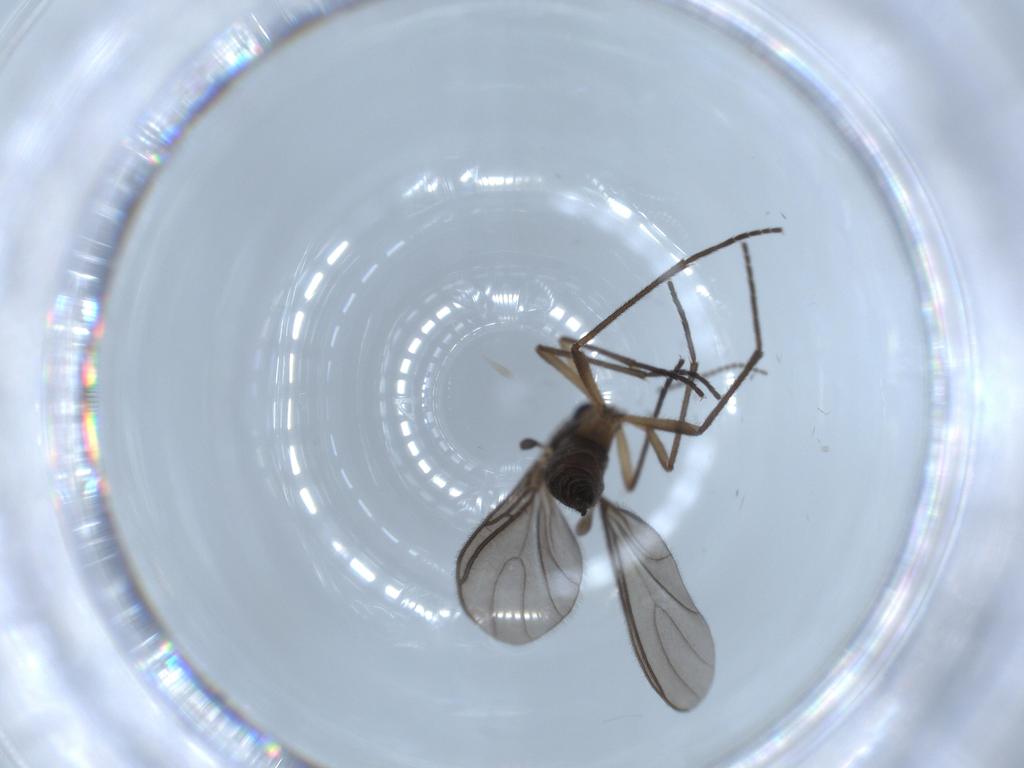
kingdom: Animalia
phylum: Arthropoda
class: Insecta
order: Diptera
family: Sciaridae
